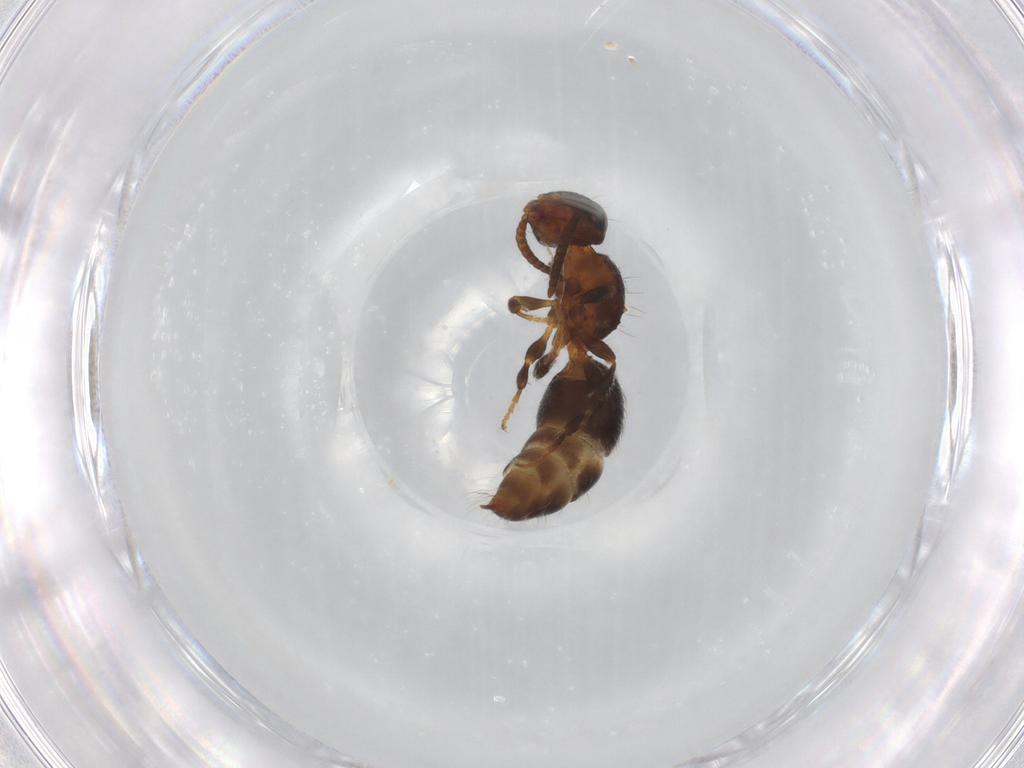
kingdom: Animalia
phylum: Arthropoda
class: Insecta
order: Hymenoptera
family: Mutillidae
